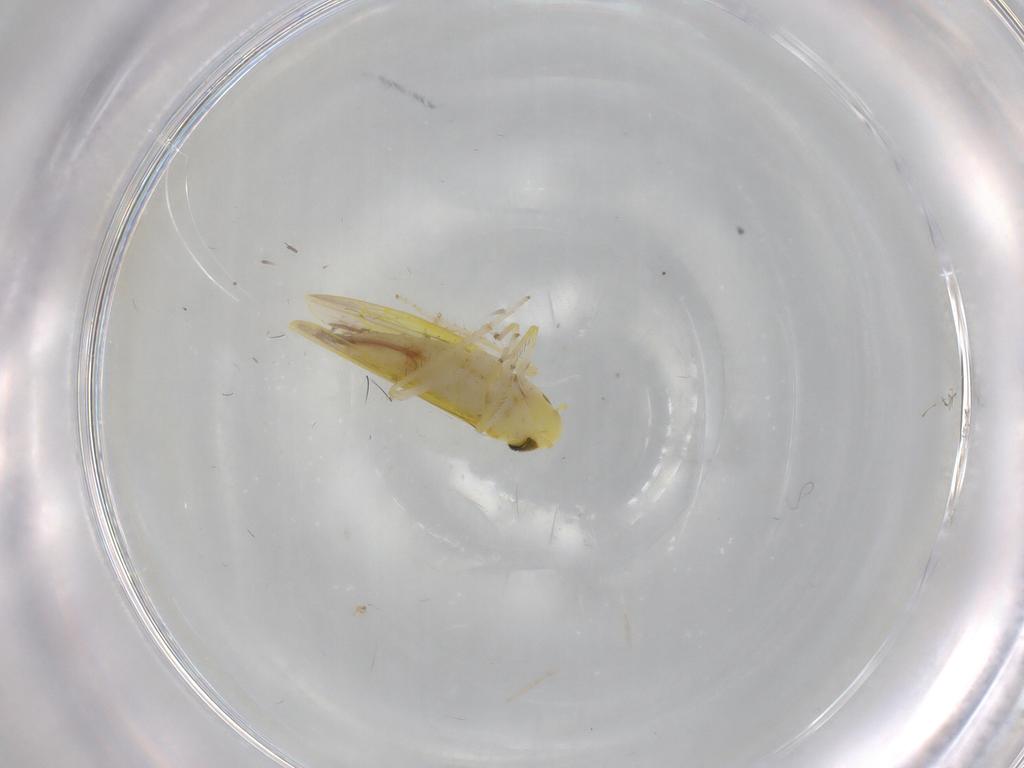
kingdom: Animalia
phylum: Arthropoda
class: Insecta
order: Hemiptera
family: Cicadellidae
